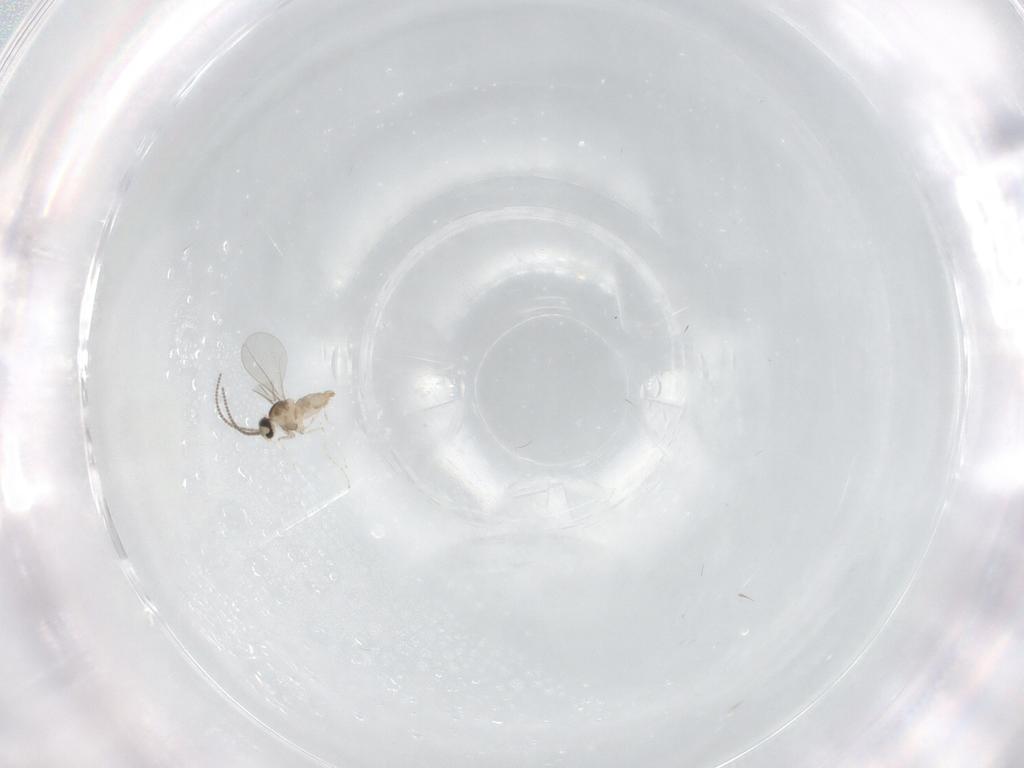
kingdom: Animalia
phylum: Arthropoda
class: Insecta
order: Diptera
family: Cecidomyiidae
